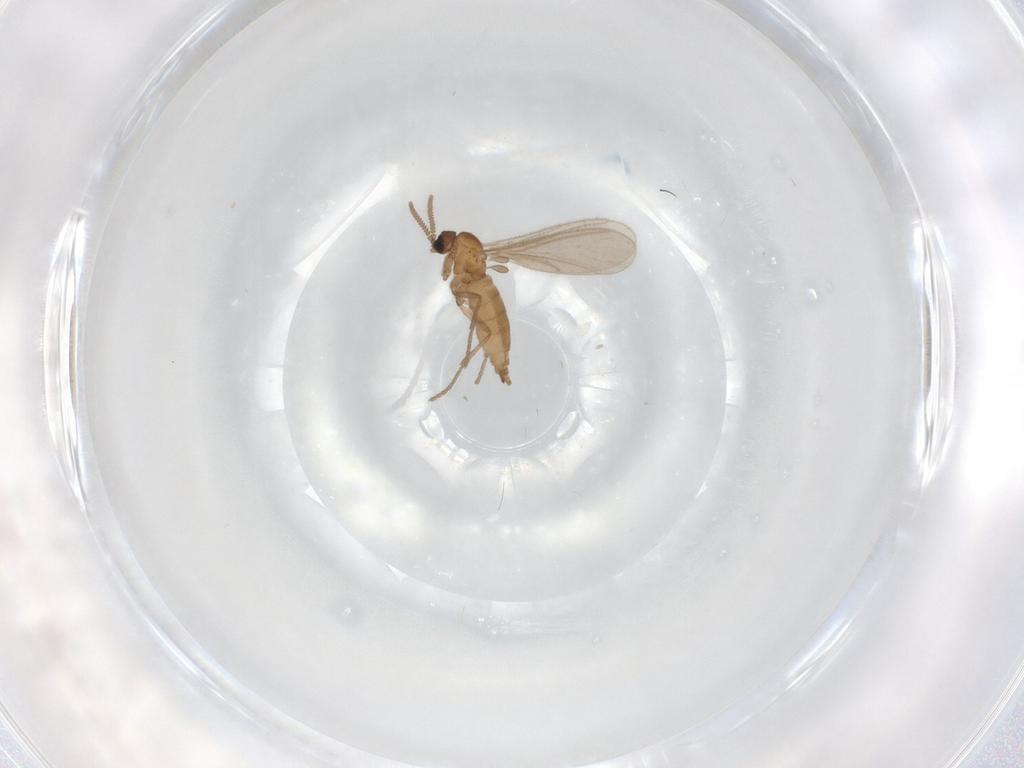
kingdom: Animalia
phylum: Arthropoda
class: Insecta
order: Diptera
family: Sciaridae
